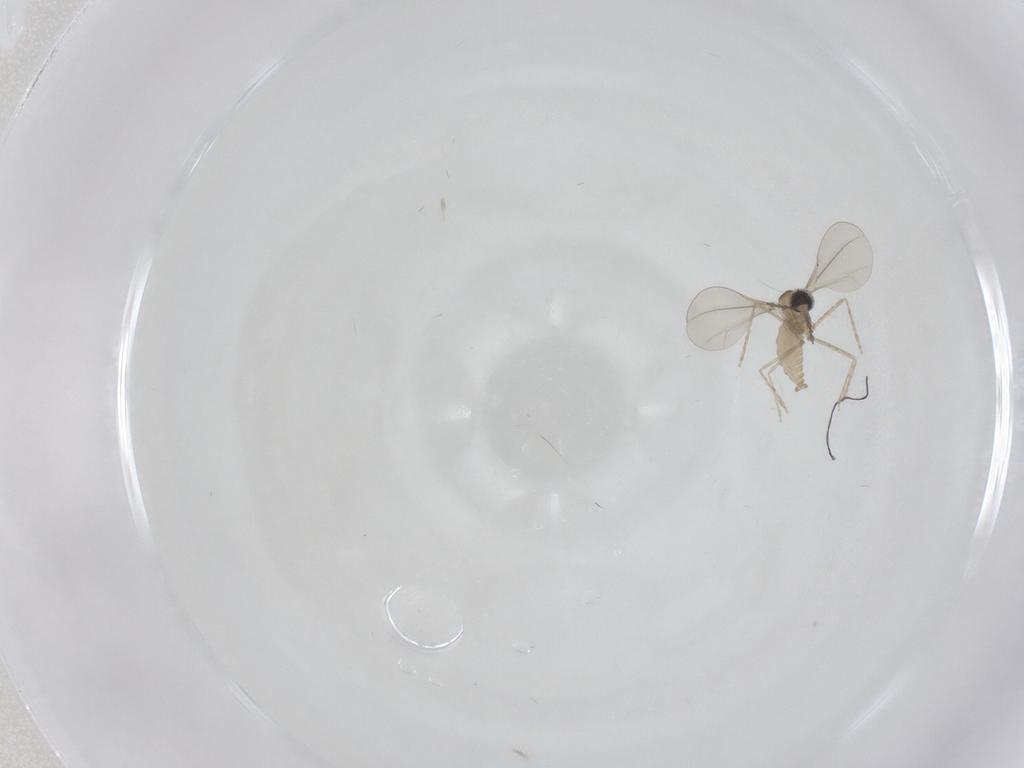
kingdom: Animalia
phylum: Arthropoda
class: Insecta
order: Diptera
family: Cecidomyiidae
